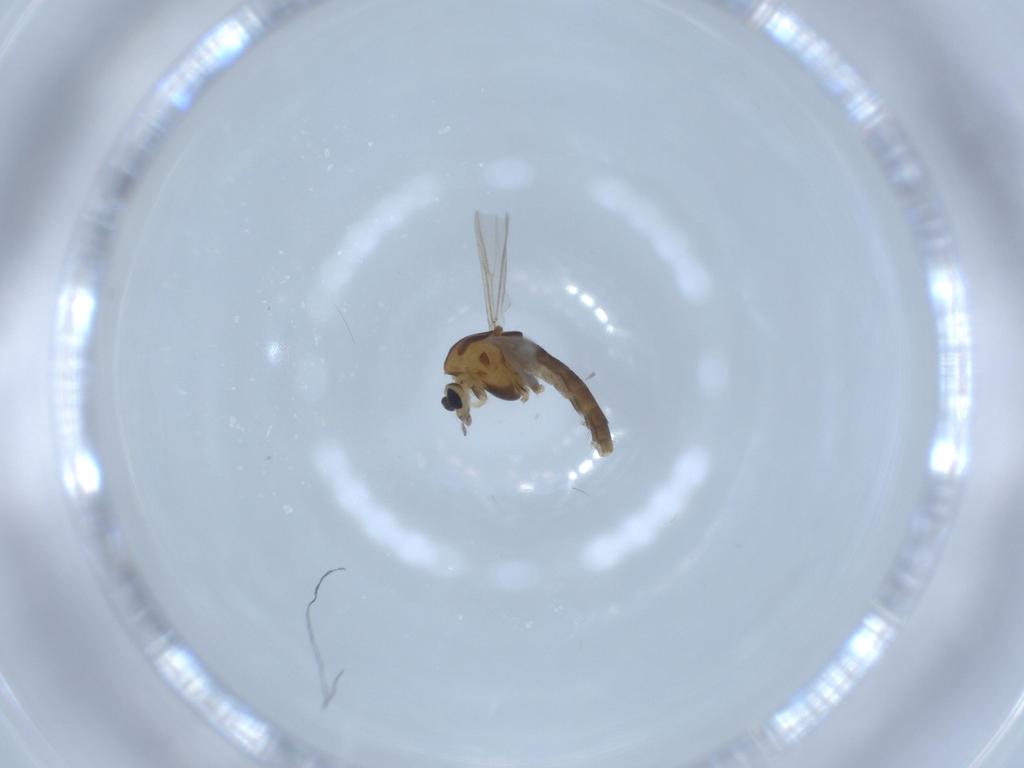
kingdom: Animalia
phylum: Arthropoda
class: Insecta
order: Diptera
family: Chironomidae
